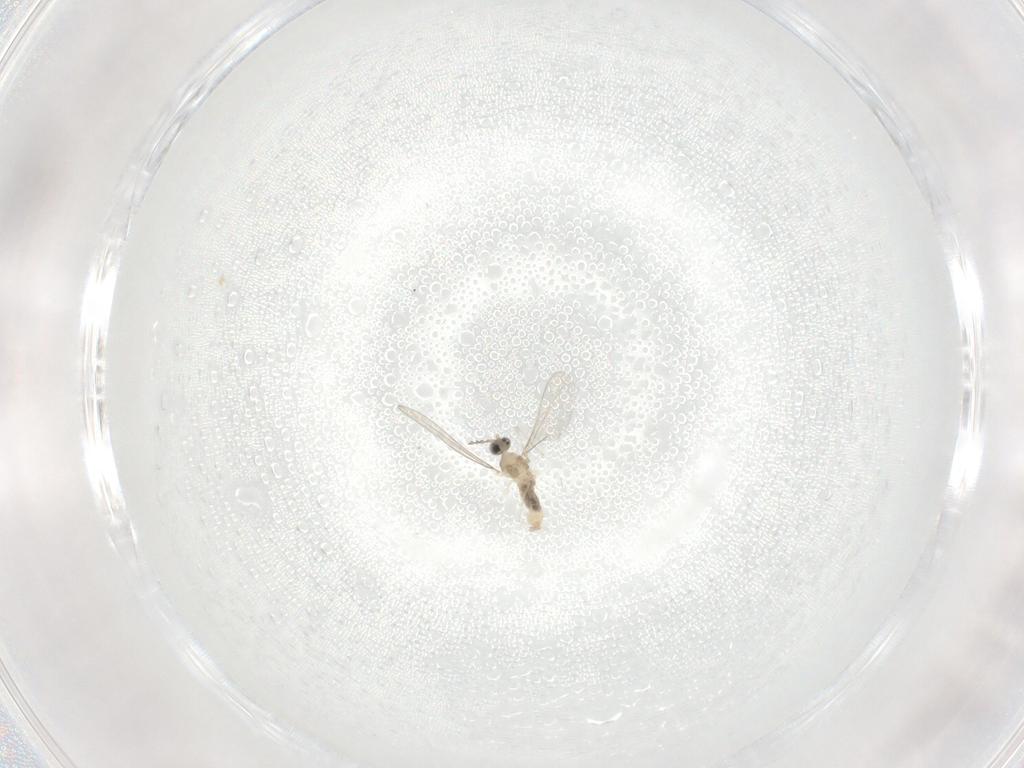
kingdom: Animalia
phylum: Arthropoda
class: Insecta
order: Diptera
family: Cecidomyiidae
